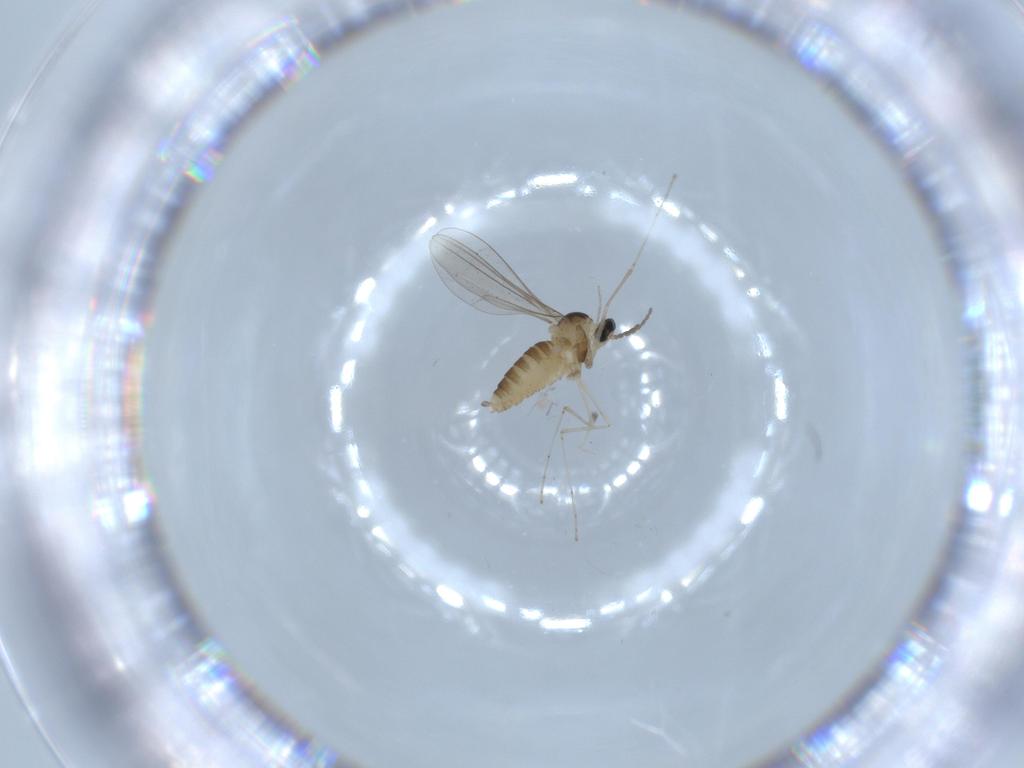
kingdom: Animalia
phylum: Arthropoda
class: Insecta
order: Diptera
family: Cecidomyiidae
